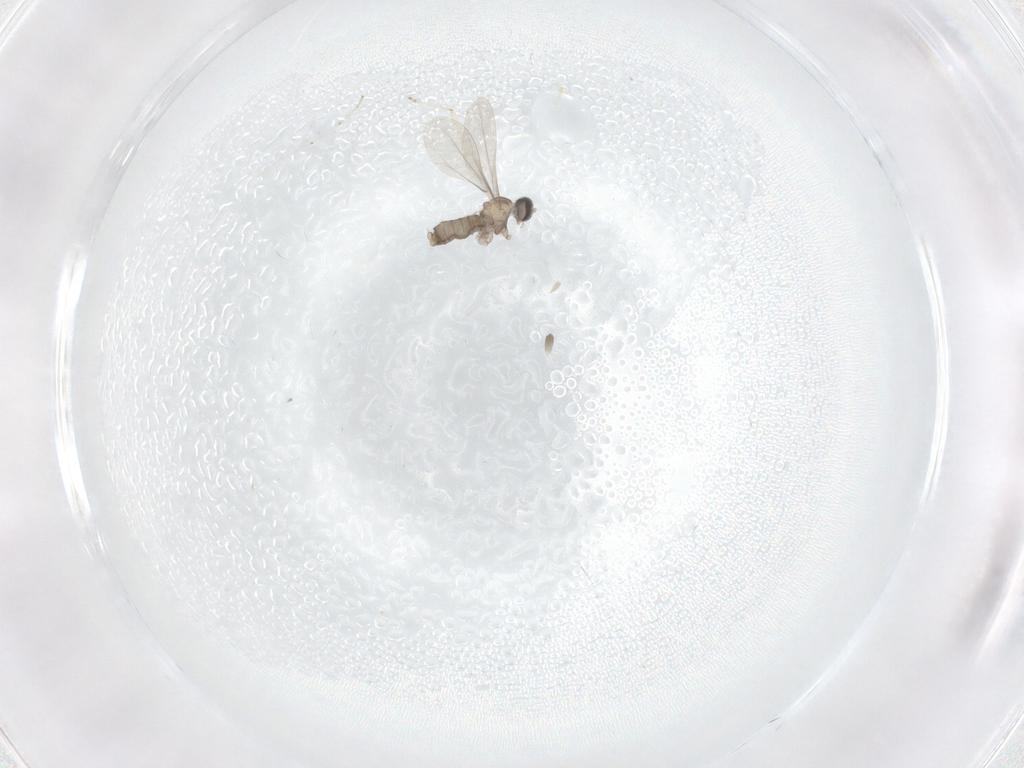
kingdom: Animalia
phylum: Arthropoda
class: Insecta
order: Diptera
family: Cecidomyiidae
